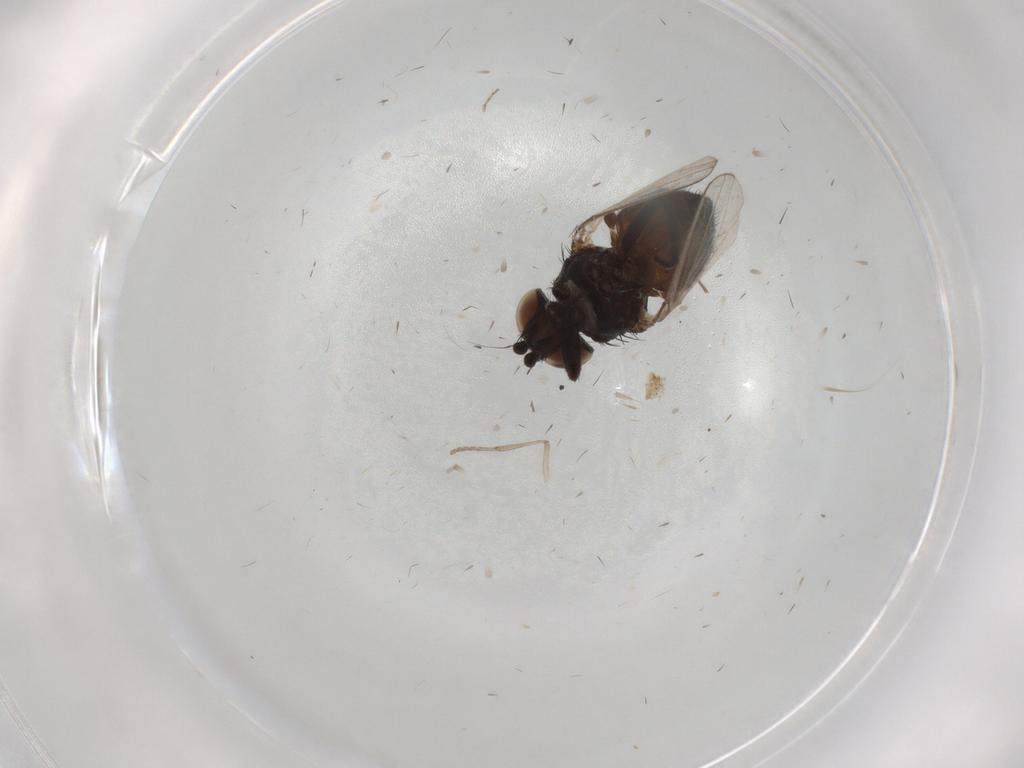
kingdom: Animalia
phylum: Arthropoda
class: Insecta
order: Diptera
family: Milichiidae
